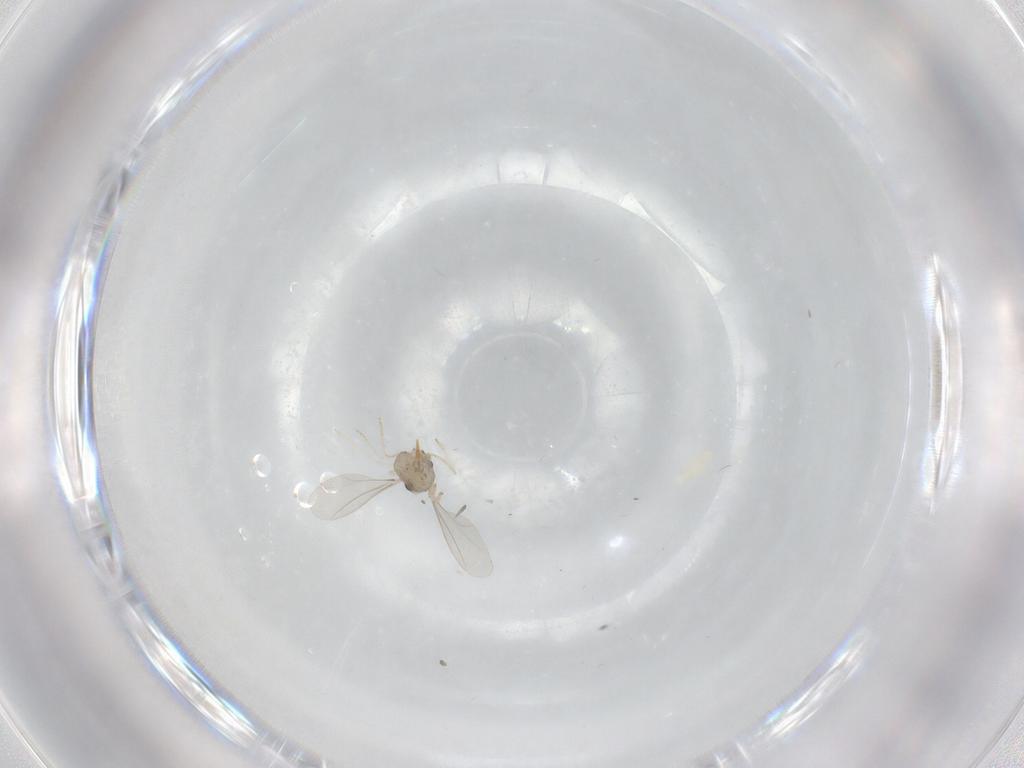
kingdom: Animalia
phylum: Arthropoda
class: Insecta
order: Diptera
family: Cecidomyiidae
